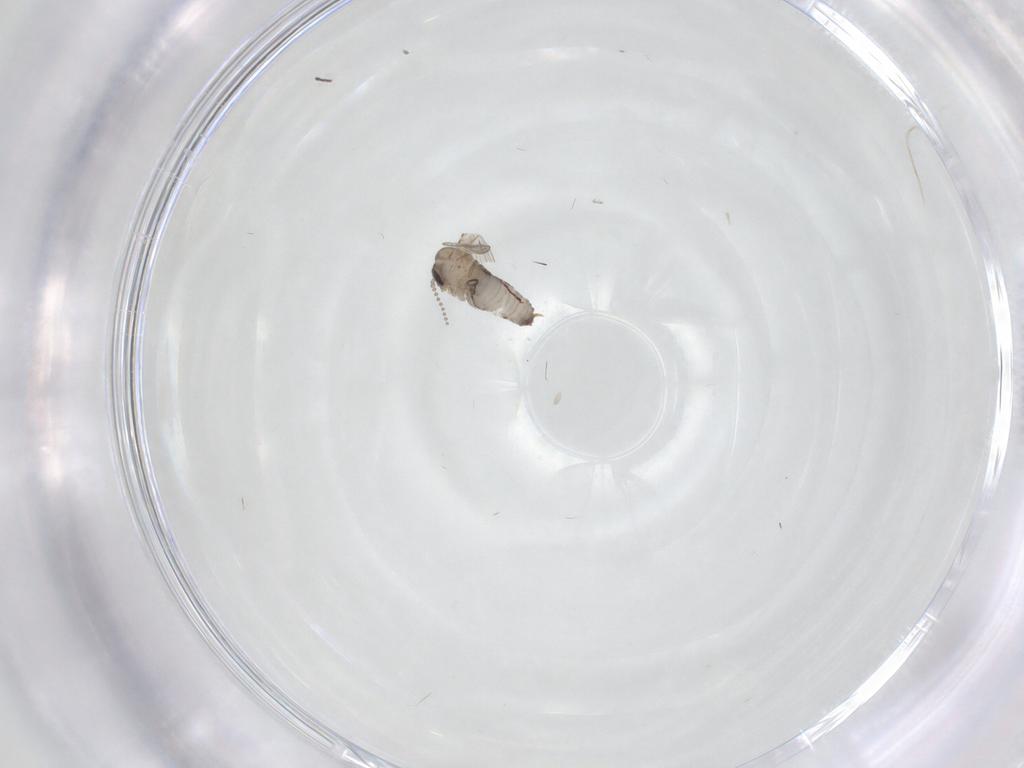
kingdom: Animalia
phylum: Arthropoda
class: Insecta
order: Diptera
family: Psychodidae
